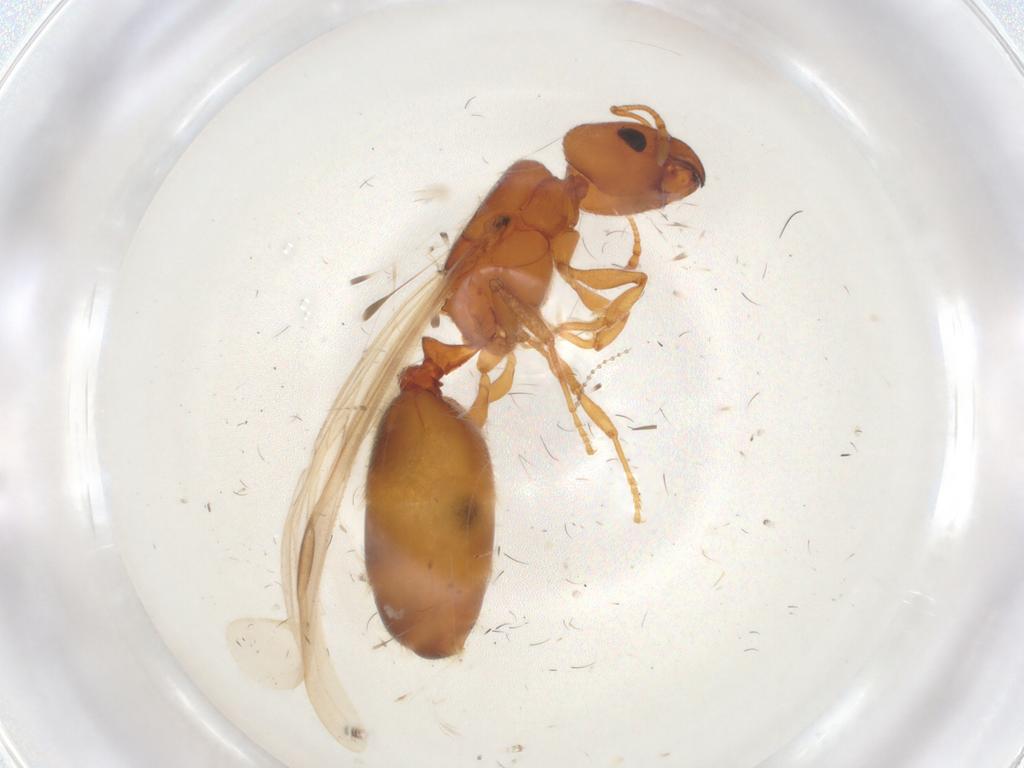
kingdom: Animalia
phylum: Arthropoda
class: Insecta
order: Hymenoptera
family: Formicidae
